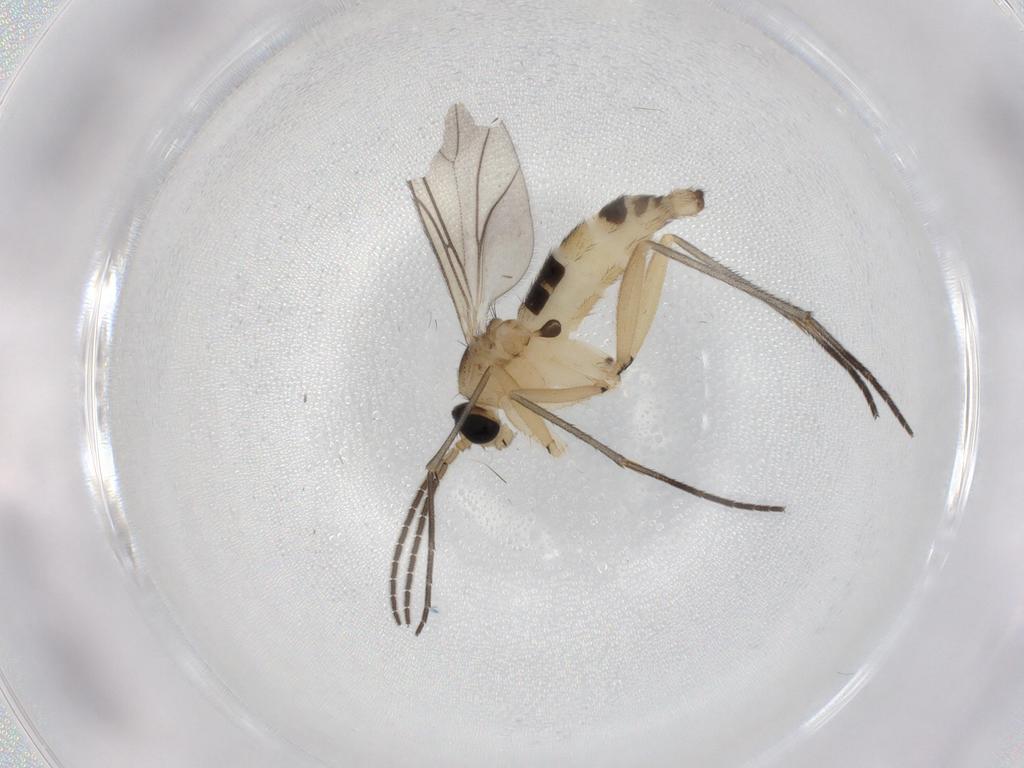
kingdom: Animalia
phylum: Arthropoda
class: Insecta
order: Diptera
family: Sciaridae
